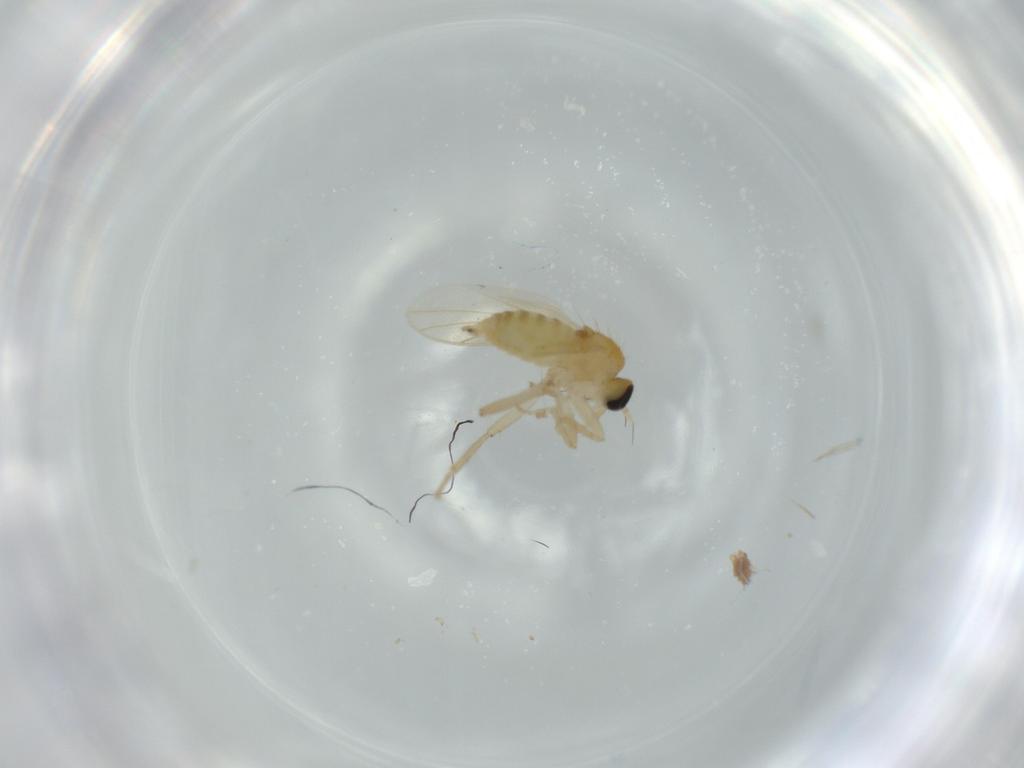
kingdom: Animalia
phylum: Arthropoda
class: Insecta
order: Diptera
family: Hybotidae
